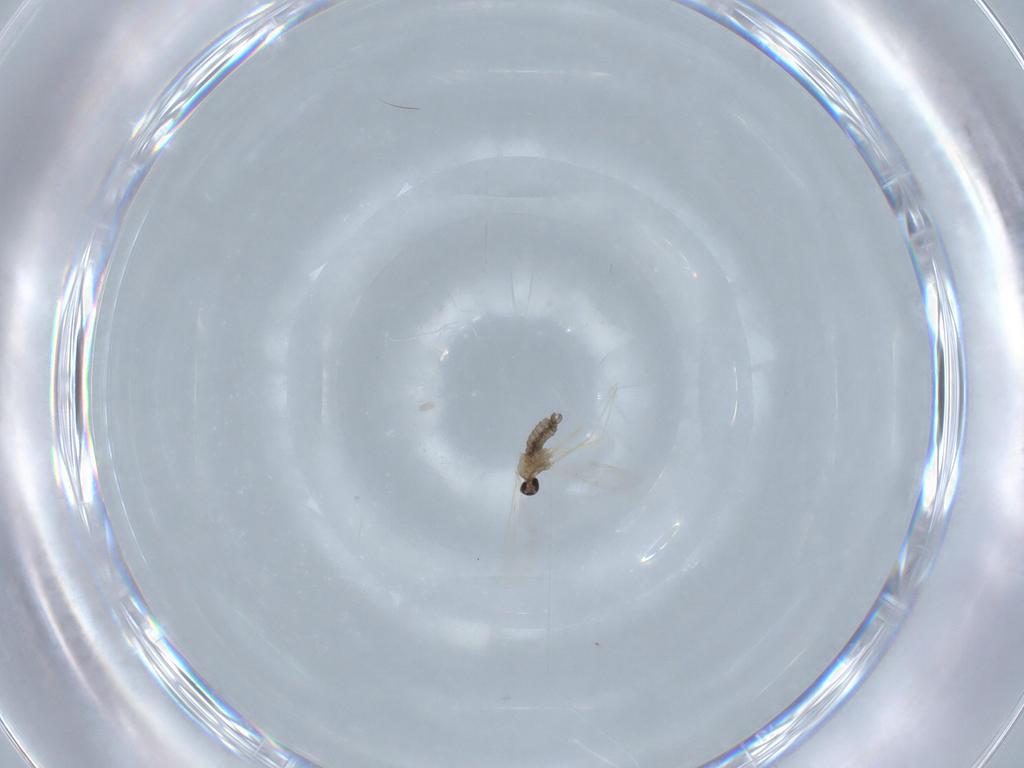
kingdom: Animalia
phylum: Arthropoda
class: Insecta
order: Diptera
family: Cecidomyiidae
